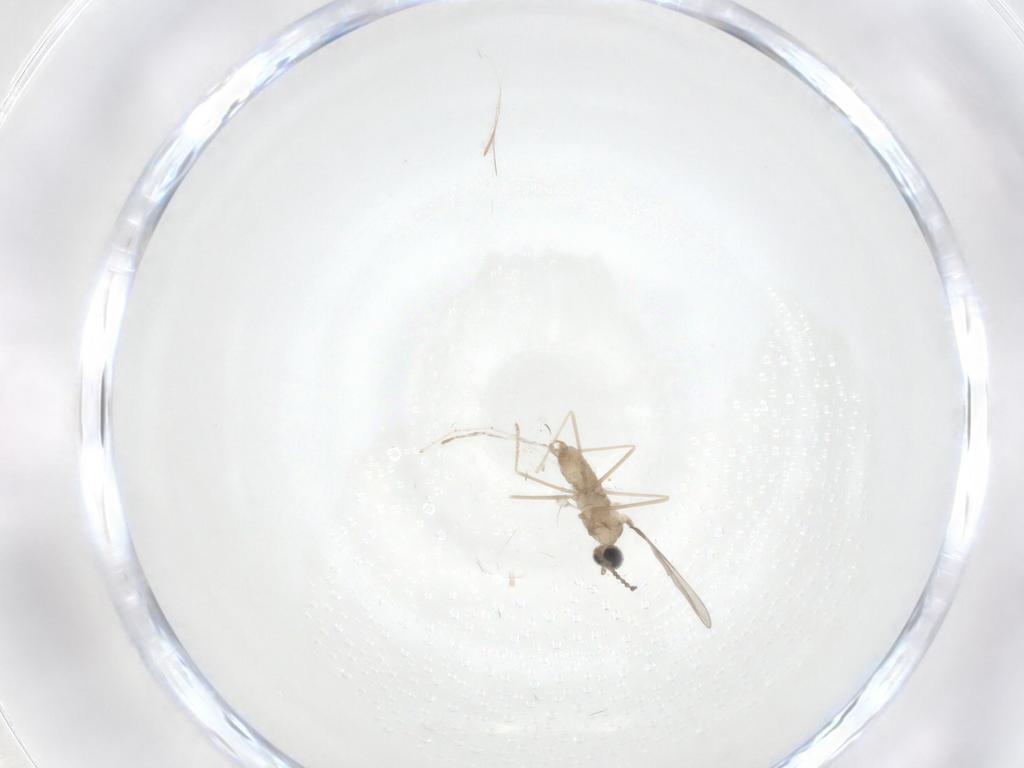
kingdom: Animalia
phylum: Arthropoda
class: Insecta
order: Diptera
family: Cecidomyiidae
